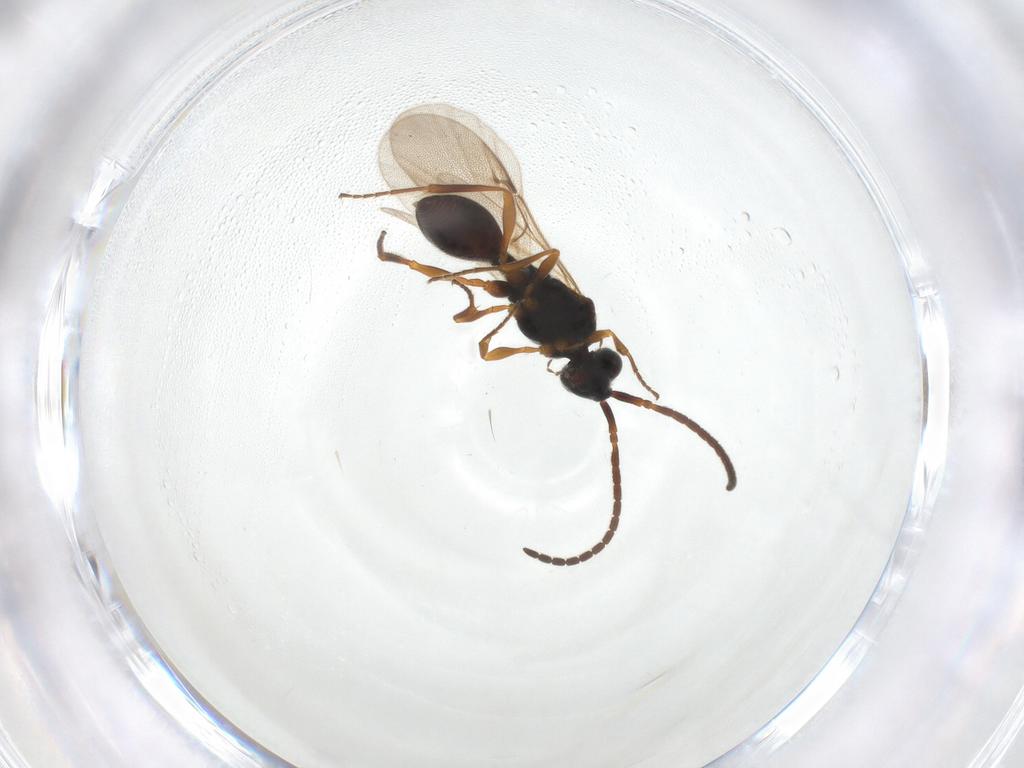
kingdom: Animalia
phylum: Arthropoda
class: Insecta
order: Hymenoptera
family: Diapriidae
